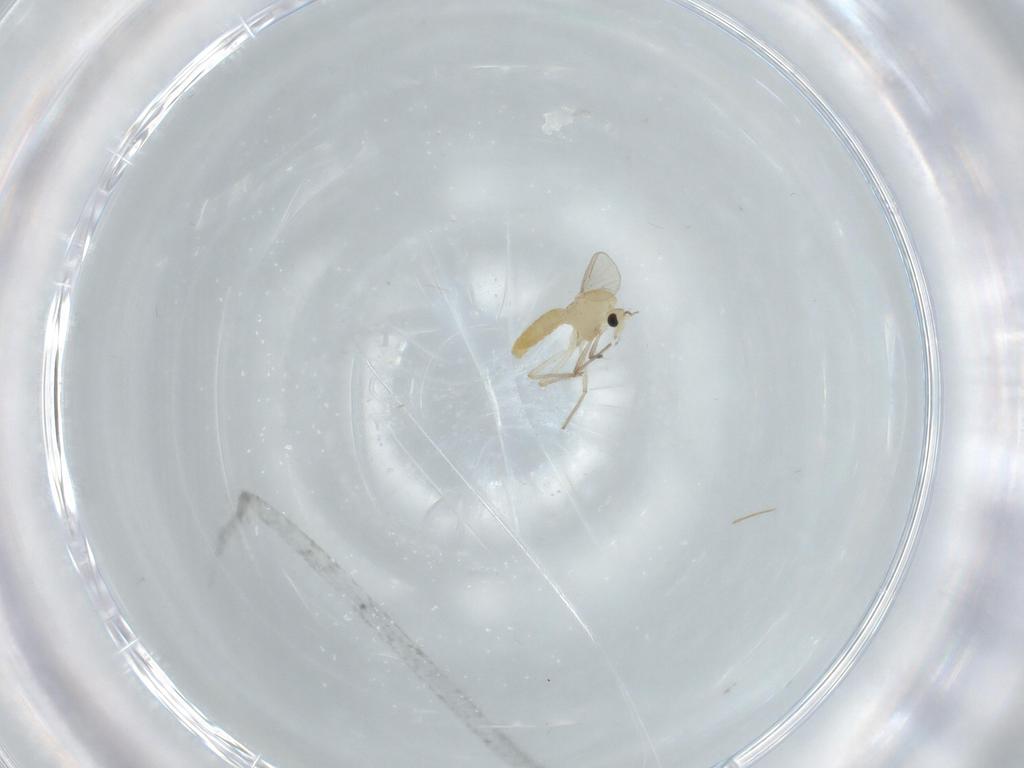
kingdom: Animalia
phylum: Arthropoda
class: Insecta
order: Diptera
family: Chironomidae
